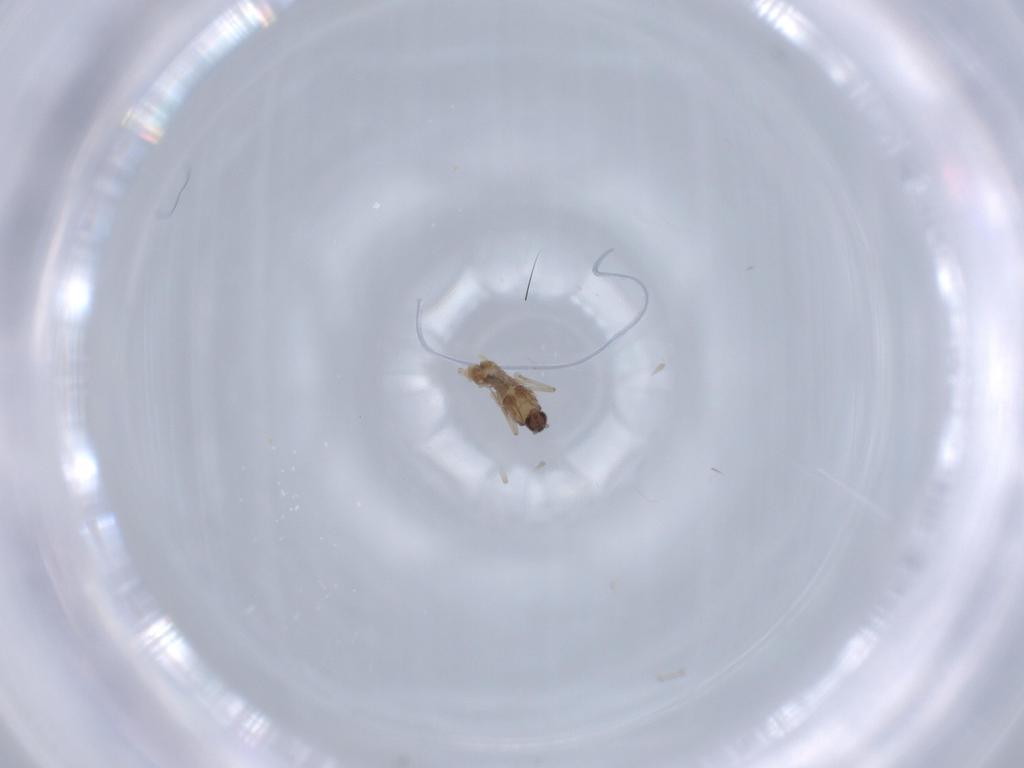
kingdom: Animalia
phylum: Arthropoda
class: Insecta
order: Diptera
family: Cecidomyiidae
